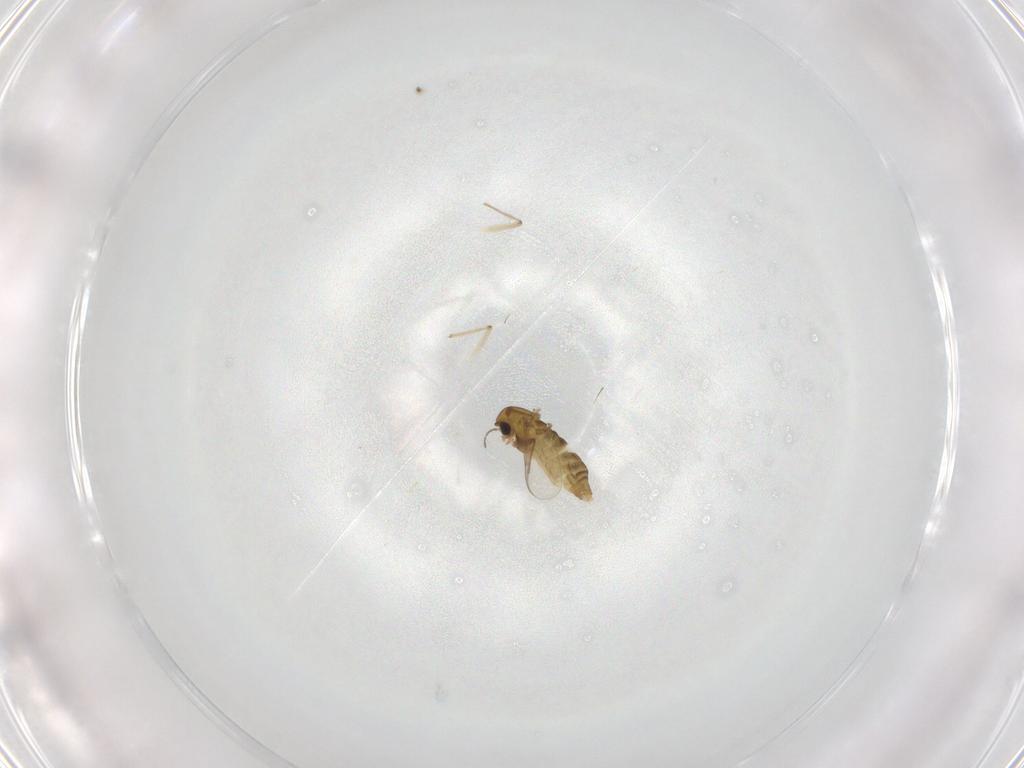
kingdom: Animalia
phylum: Arthropoda
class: Insecta
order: Diptera
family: Chironomidae
